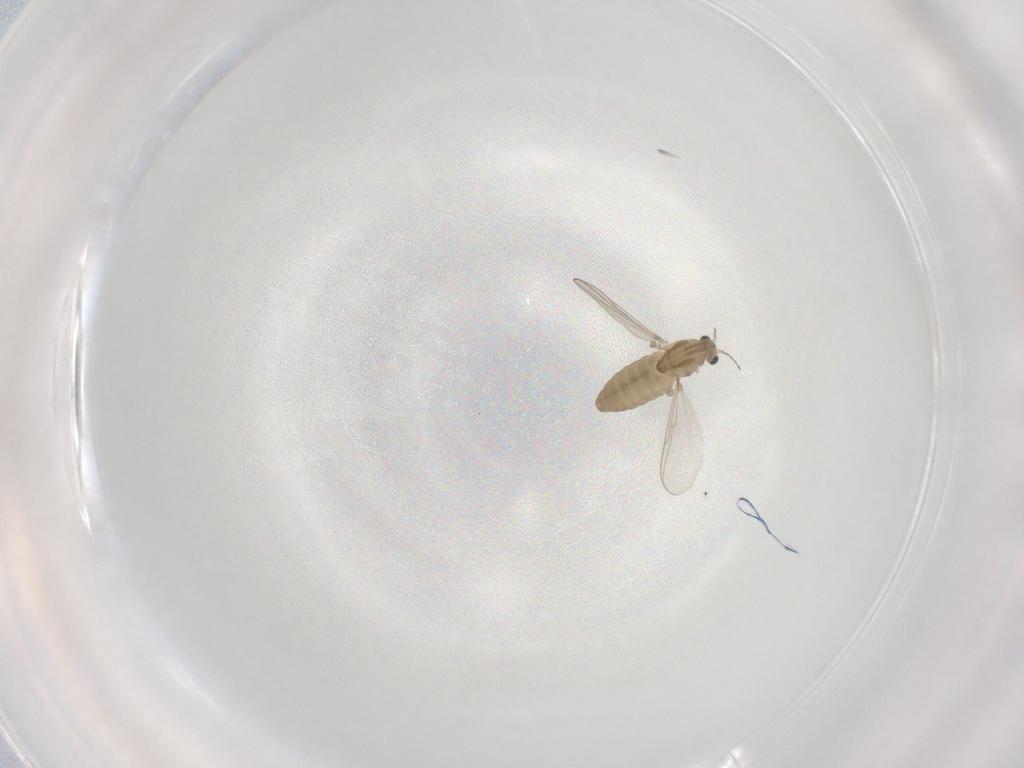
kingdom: Animalia
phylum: Arthropoda
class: Insecta
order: Diptera
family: Chironomidae
